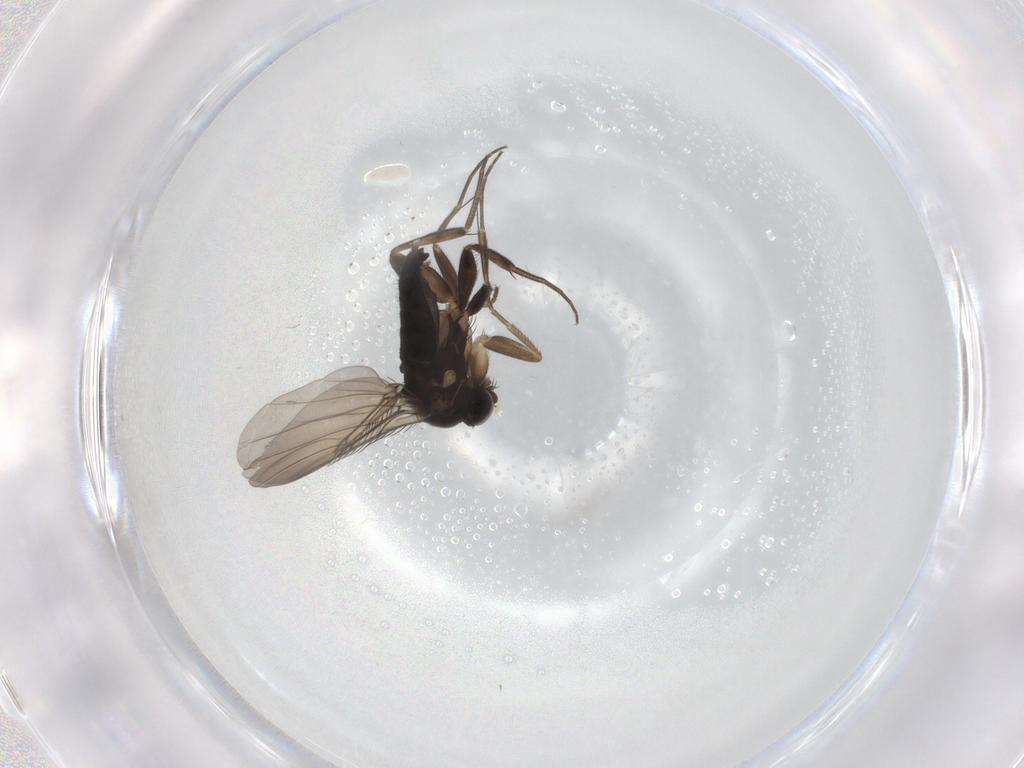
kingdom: Animalia
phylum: Arthropoda
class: Insecta
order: Diptera
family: Phoridae
